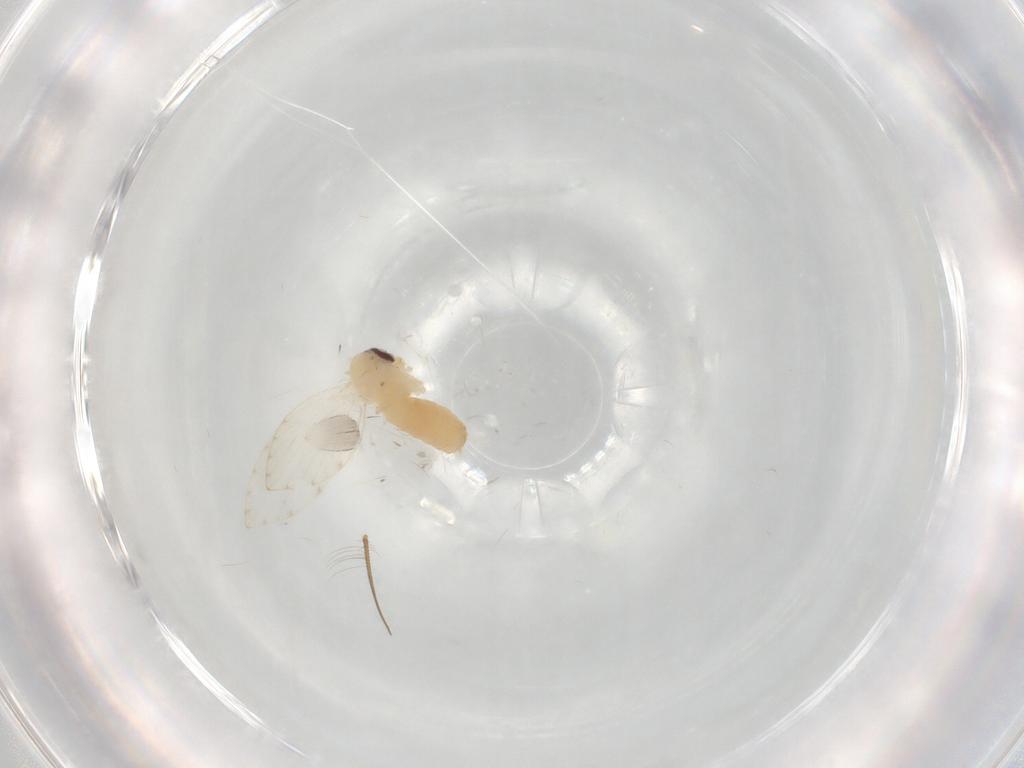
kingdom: Animalia
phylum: Arthropoda
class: Insecta
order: Diptera
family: Psychodidae
